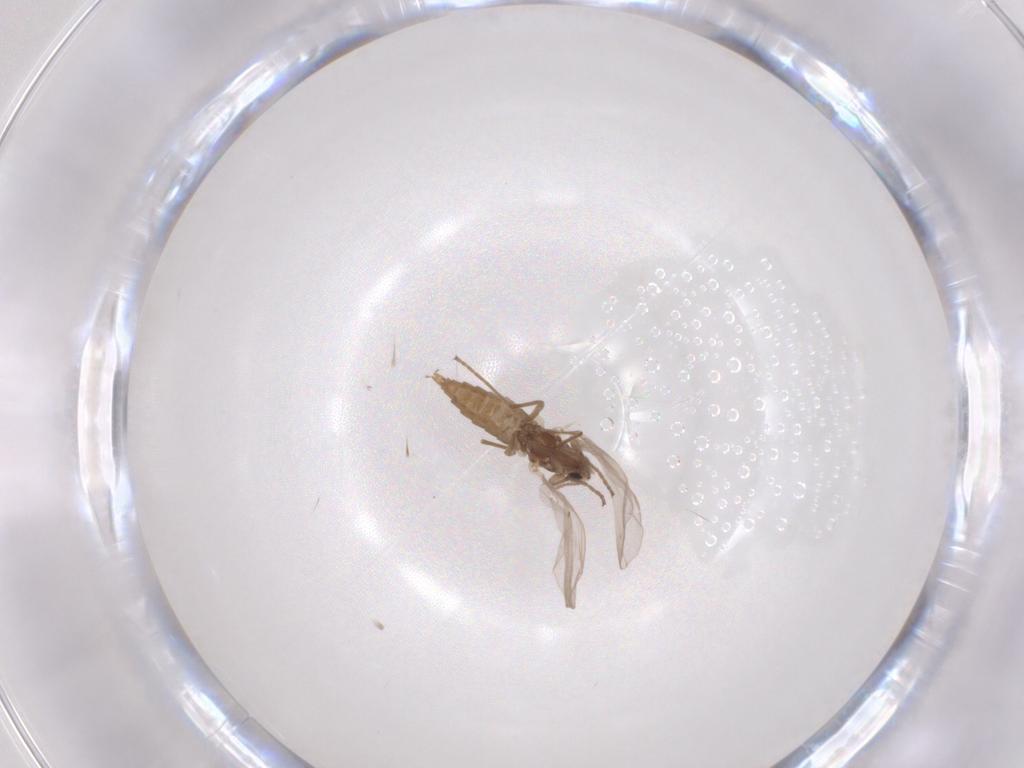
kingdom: Animalia
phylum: Arthropoda
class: Insecta
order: Diptera
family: Cecidomyiidae
